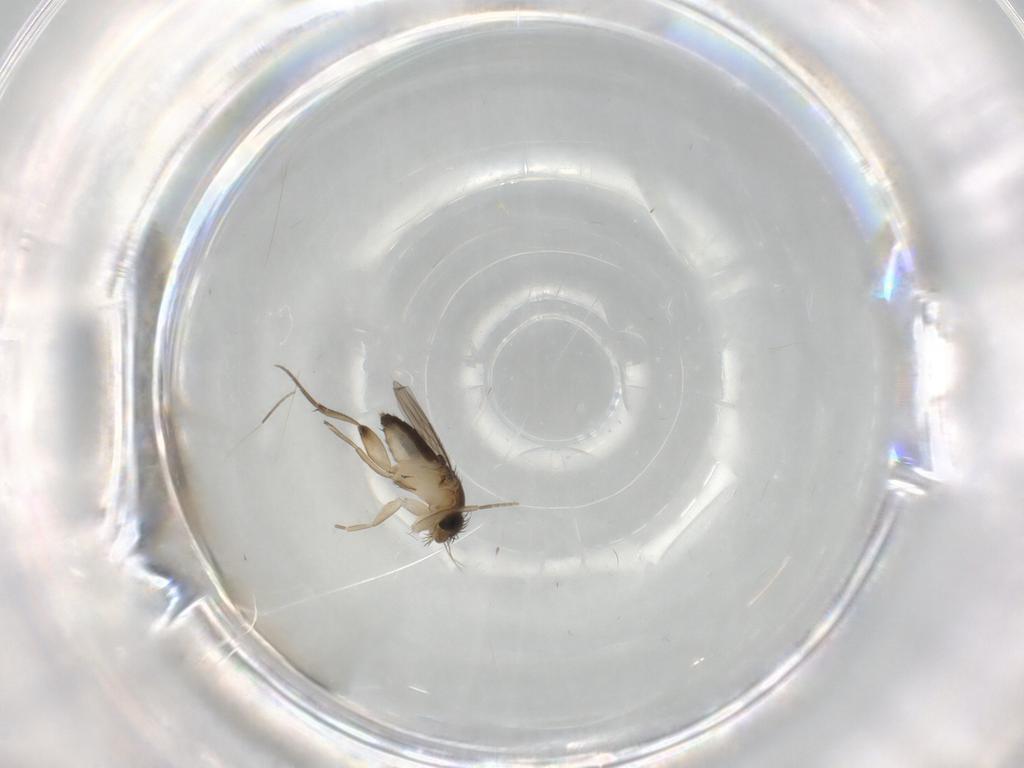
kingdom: Animalia
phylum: Arthropoda
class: Insecta
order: Diptera
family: Phoridae
